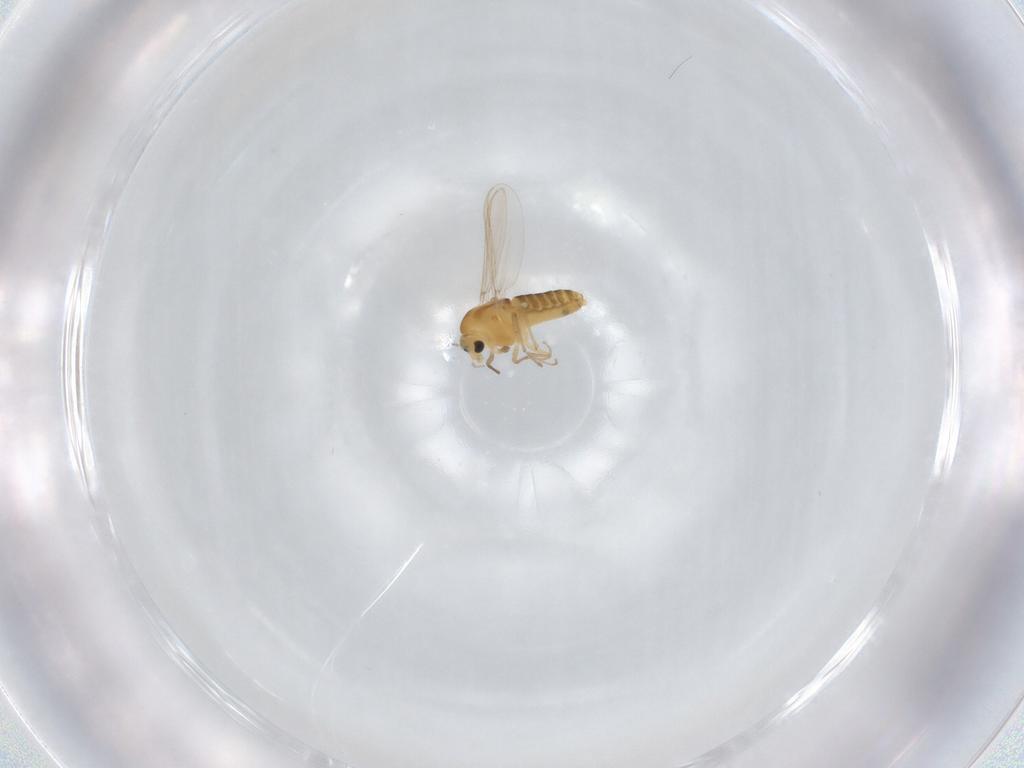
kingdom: Animalia
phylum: Arthropoda
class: Insecta
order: Diptera
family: Chironomidae
